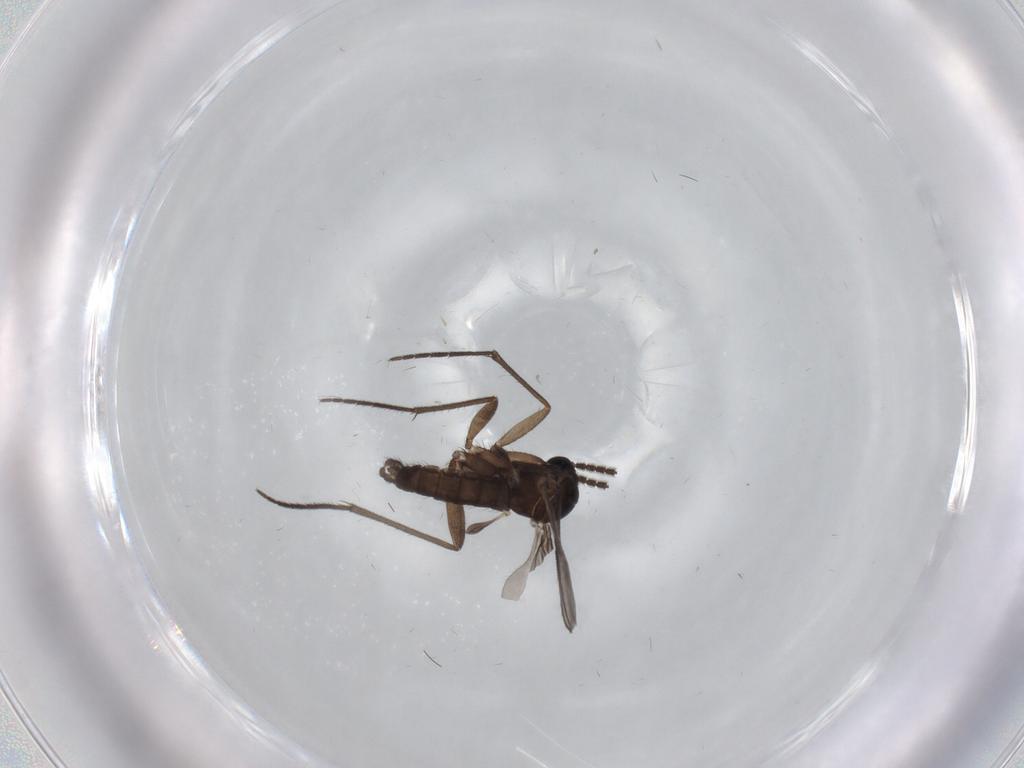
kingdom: Animalia
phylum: Arthropoda
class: Insecta
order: Diptera
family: Sciaridae
